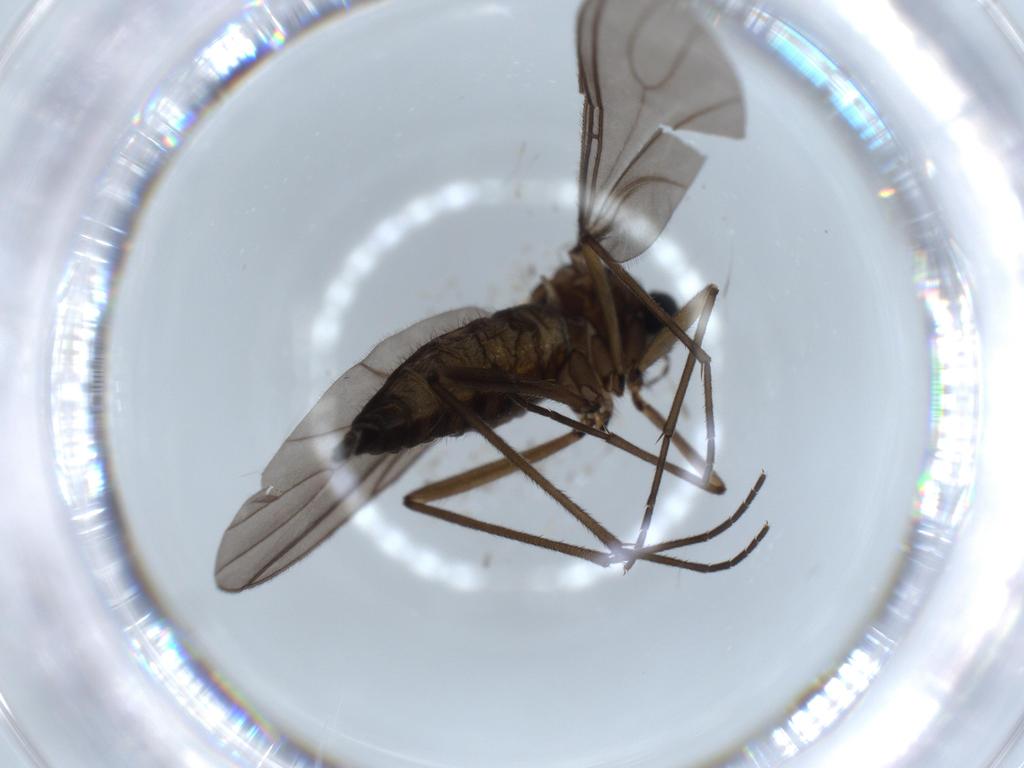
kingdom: Animalia
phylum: Arthropoda
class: Insecta
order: Diptera
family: Sciaridae
